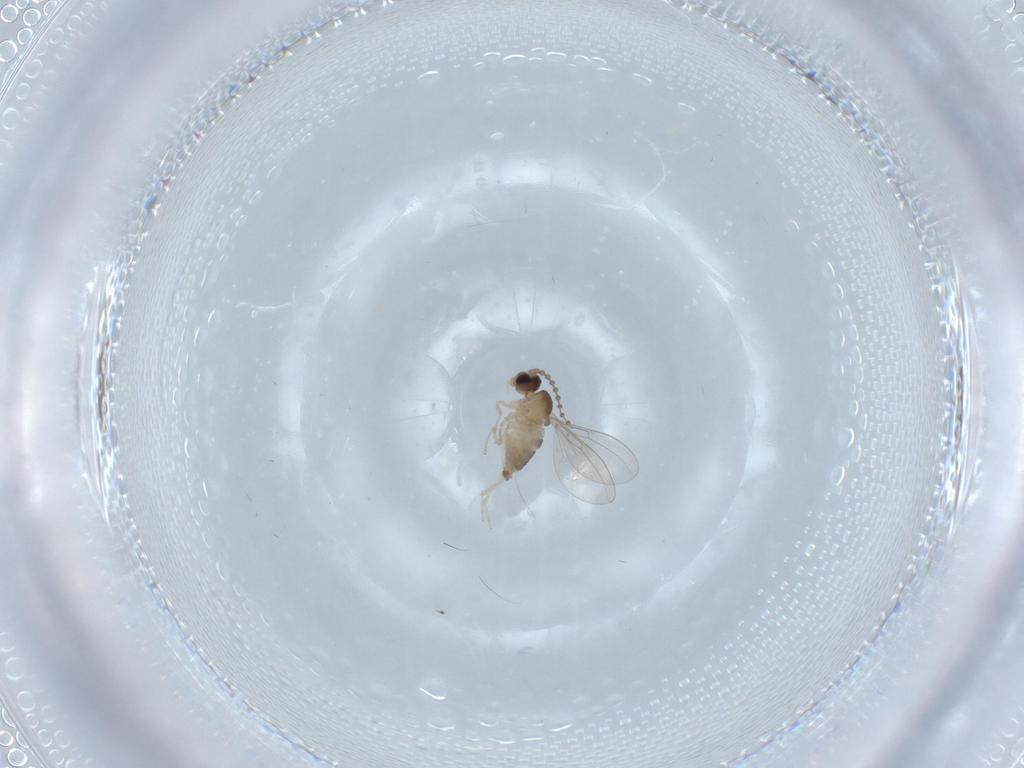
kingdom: Animalia
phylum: Arthropoda
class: Insecta
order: Diptera
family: Cecidomyiidae
